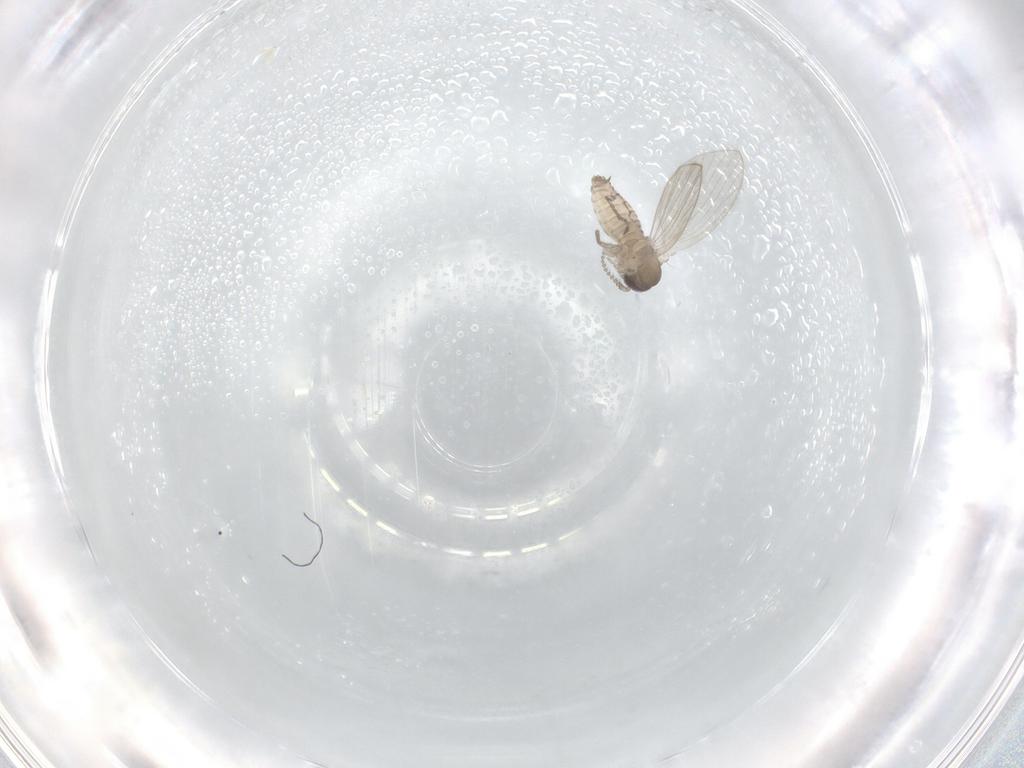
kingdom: Animalia
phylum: Arthropoda
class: Insecta
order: Diptera
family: Psychodidae
